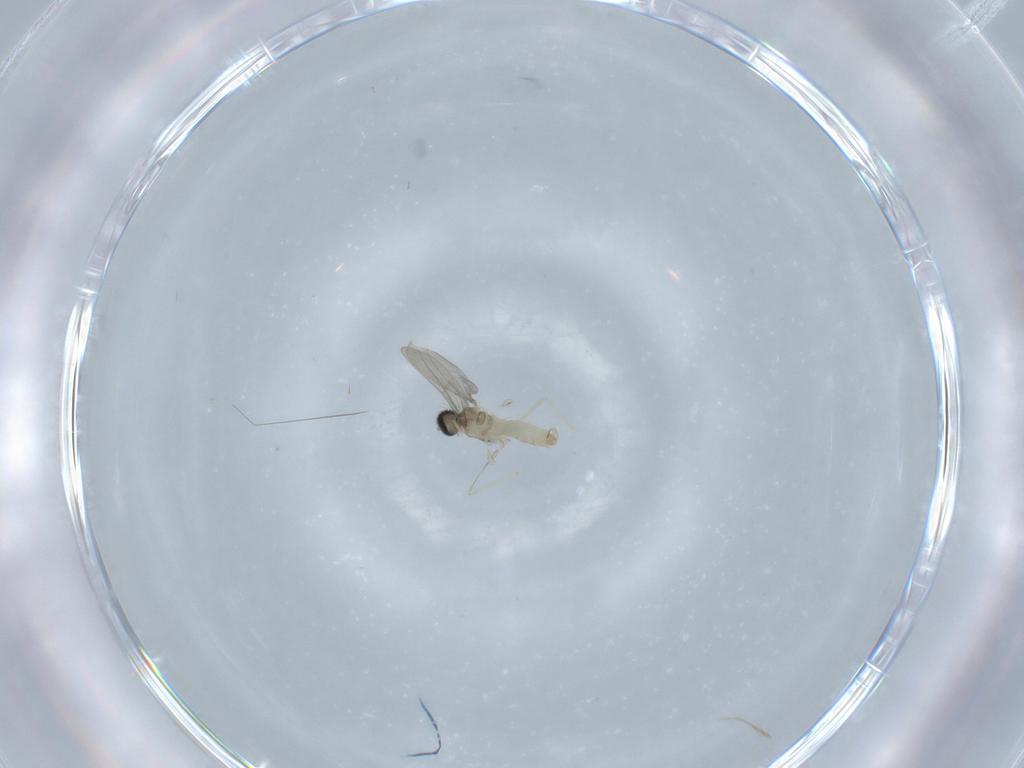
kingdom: Animalia
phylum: Arthropoda
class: Insecta
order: Diptera
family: Cecidomyiidae
